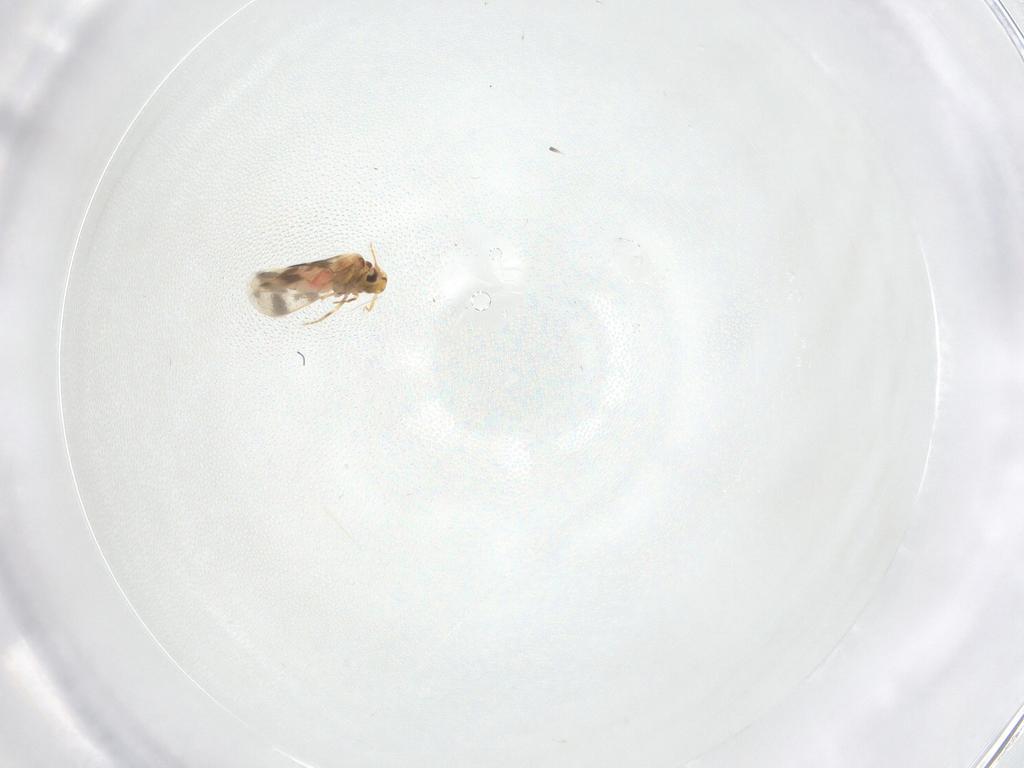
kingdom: Animalia
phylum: Arthropoda
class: Insecta
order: Hemiptera
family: Aleyrodidae
